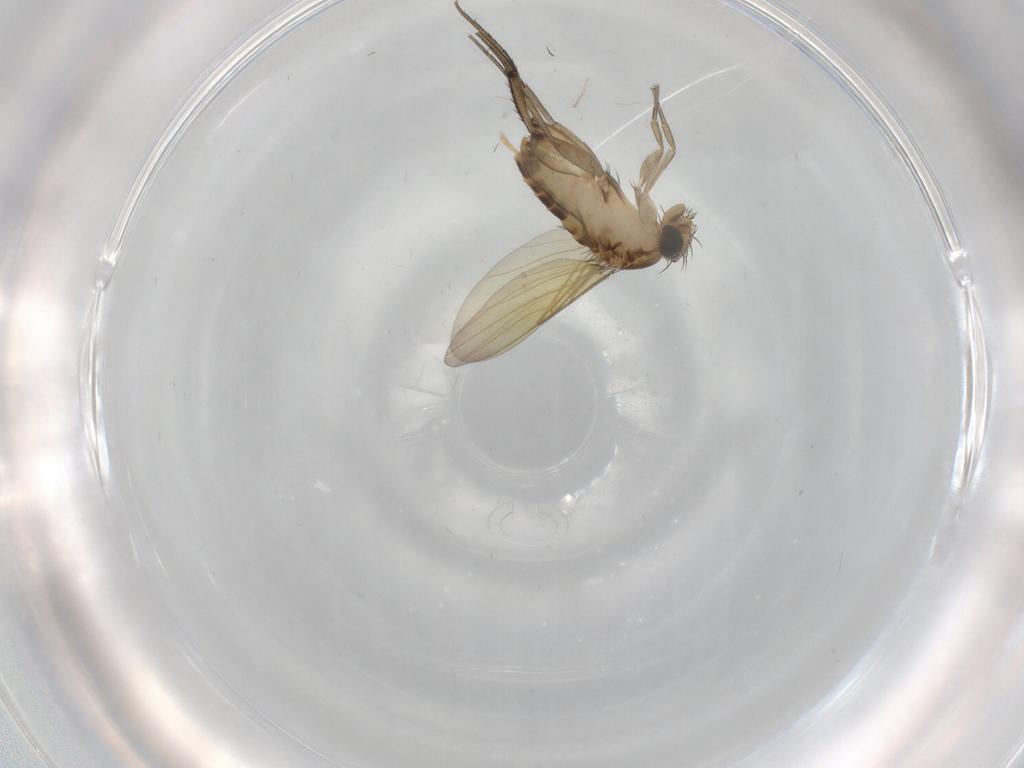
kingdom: Animalia
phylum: Arthropoda
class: Insecta
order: Diptera
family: Phoridae
